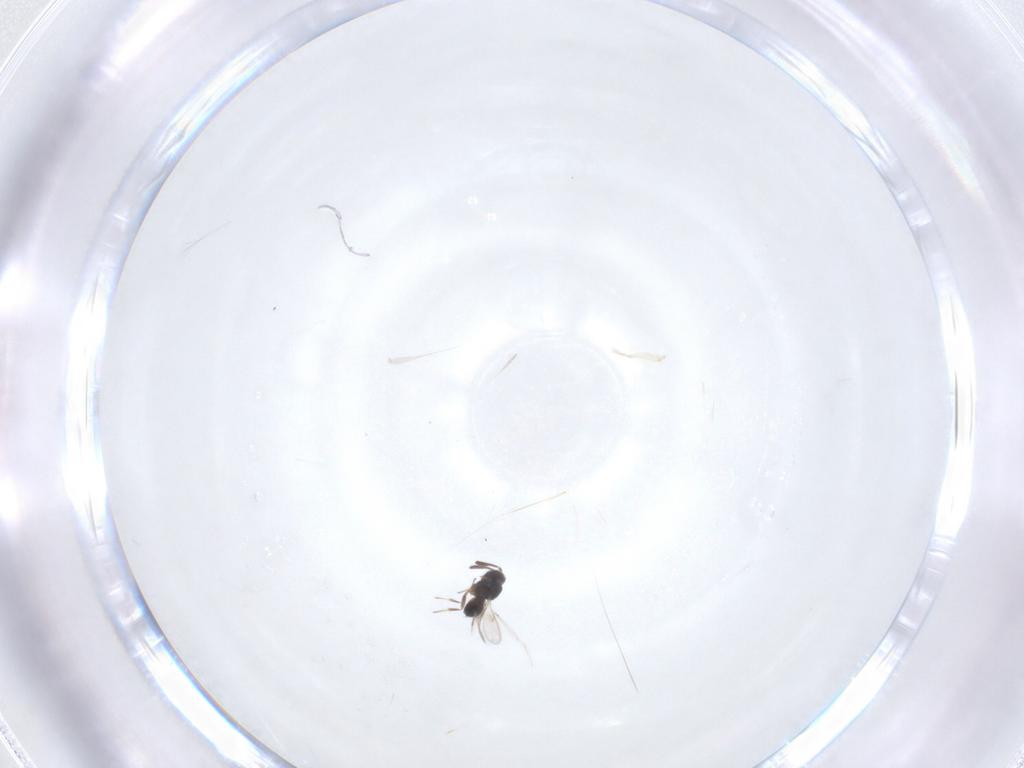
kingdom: Animalia
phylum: Arthropoda
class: Insecta
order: Hymenoptera
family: Scelionidae
